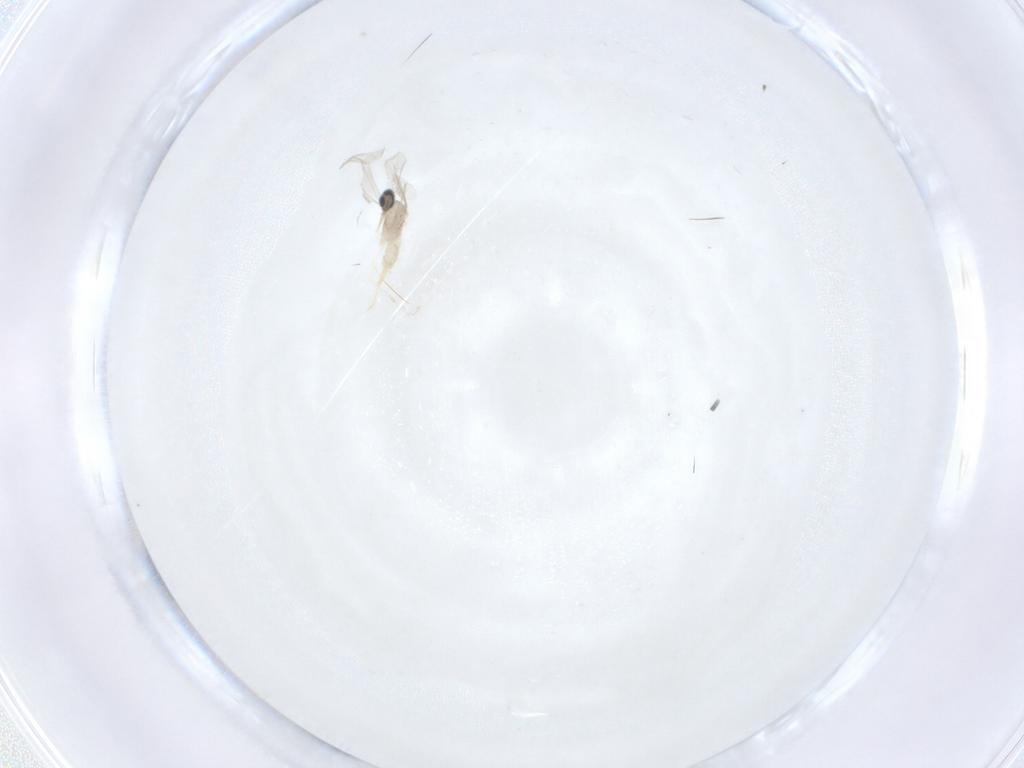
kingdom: Animalia
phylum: Arthropoda
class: Insecta
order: Diptera
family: Cecidomyiidae
